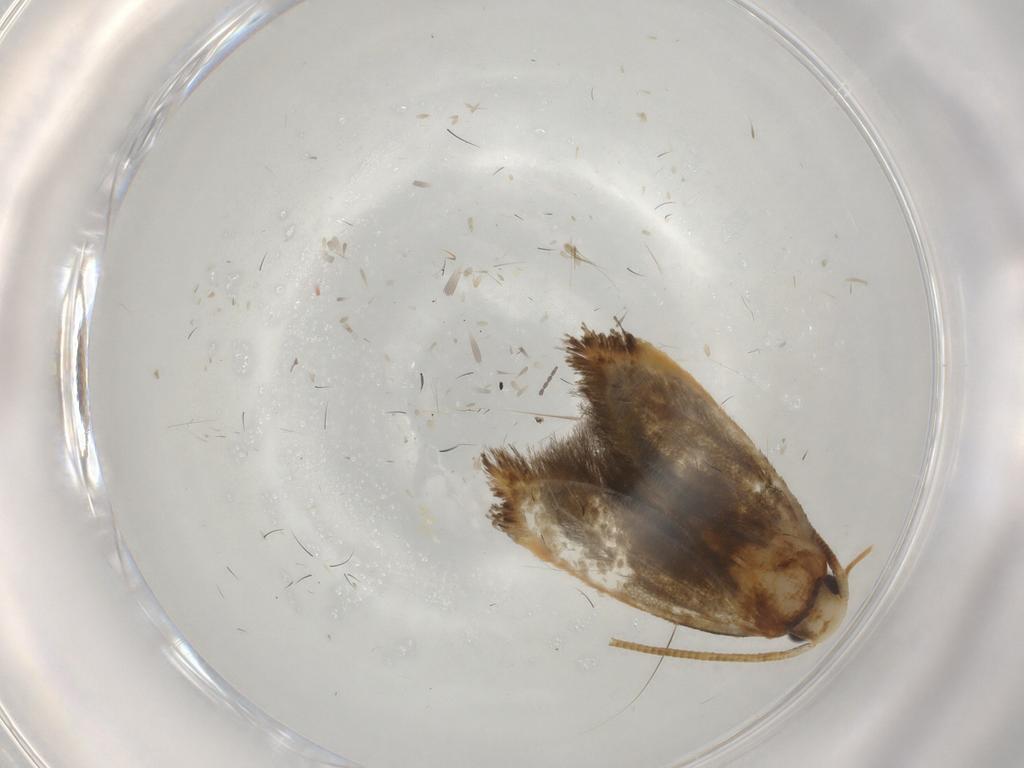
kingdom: Animalia
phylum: Arthropoda
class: Insecta
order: Lepidoptera
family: Tineidae
